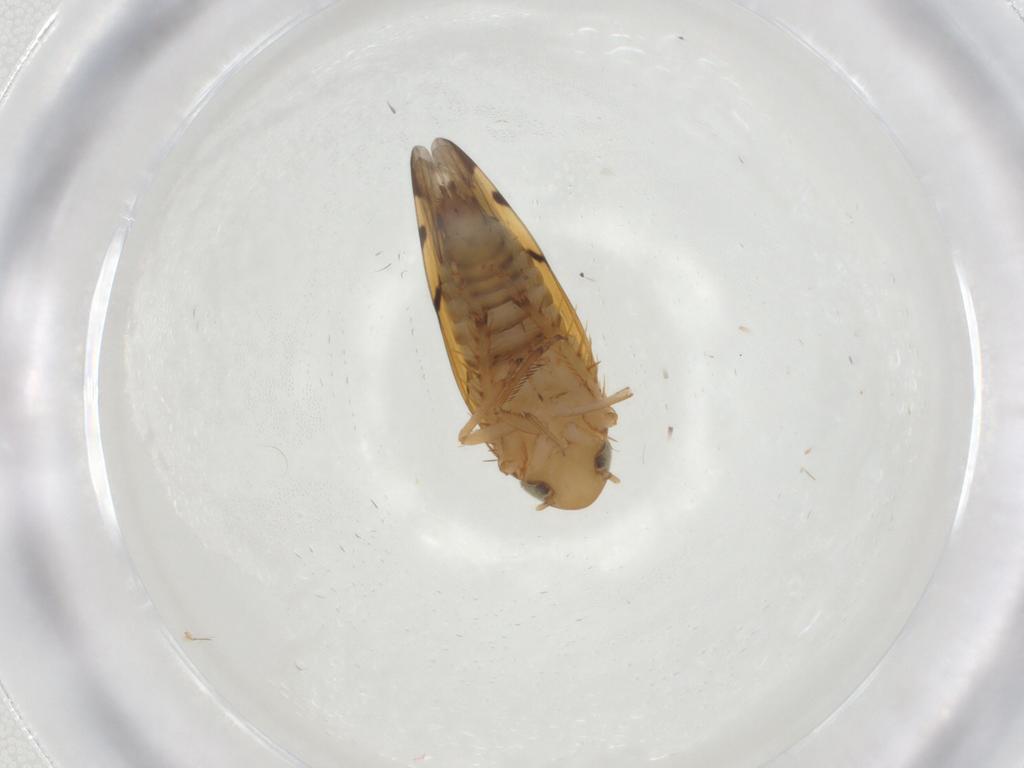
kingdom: Animalia
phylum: Arthropoda
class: Insecta
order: Hemiptera
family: Cicadellidae
